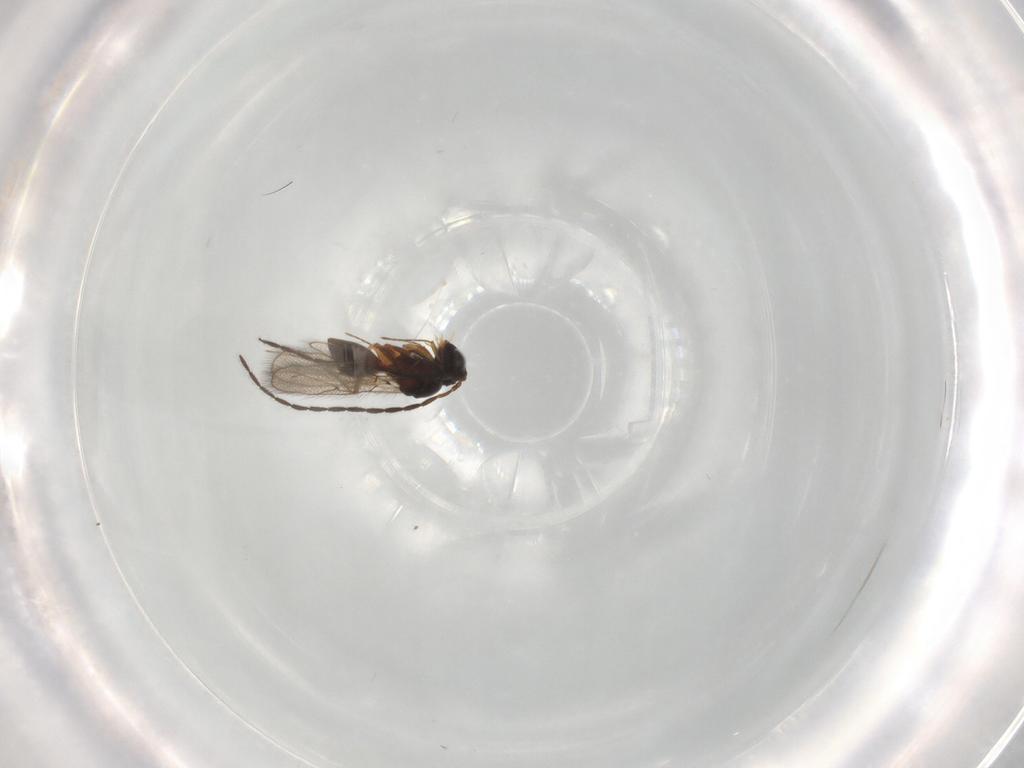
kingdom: Animalia
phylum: Arthropoda
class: Insecta
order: Hymenoptera
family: Figitidae
